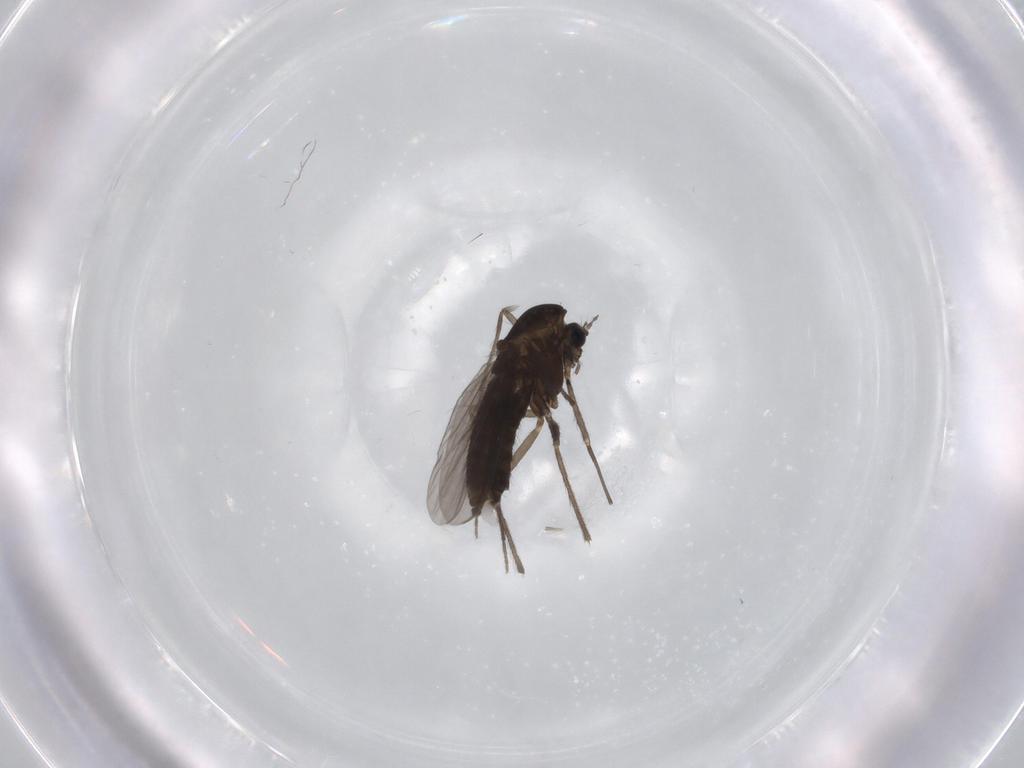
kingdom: Animalia
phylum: Arthropoda
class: Insecta
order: Diptera
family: Chironomidae
